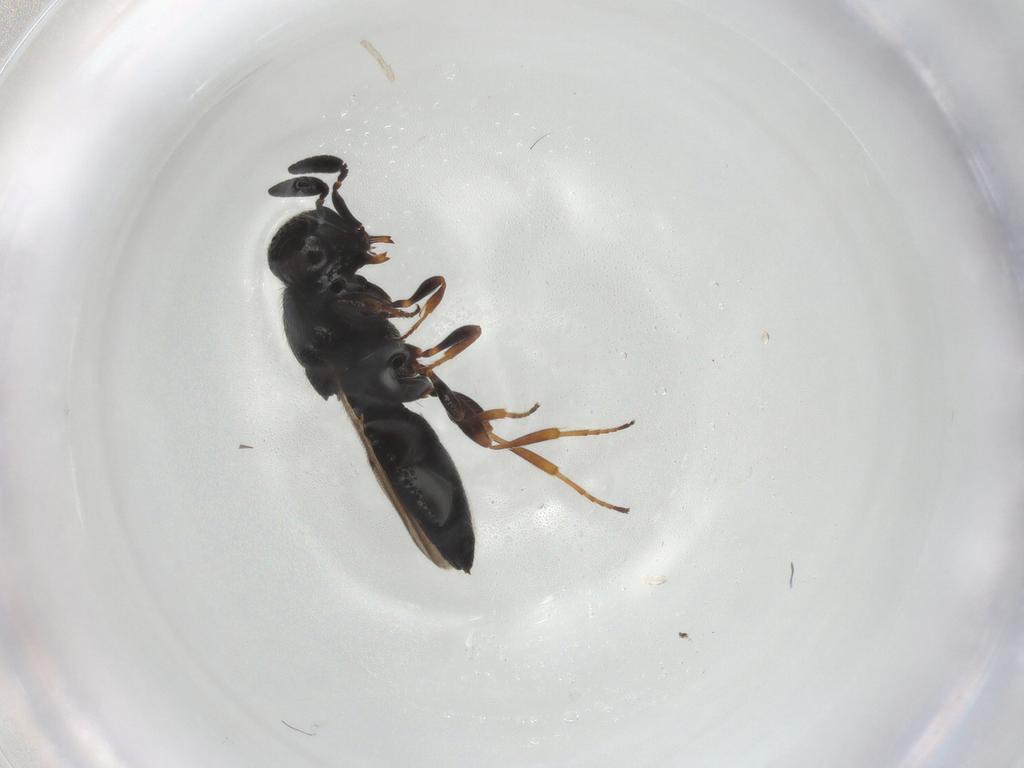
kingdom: Animalia
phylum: Arthropoda
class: Insecta
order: Hymenoptera
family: Scelionidae
